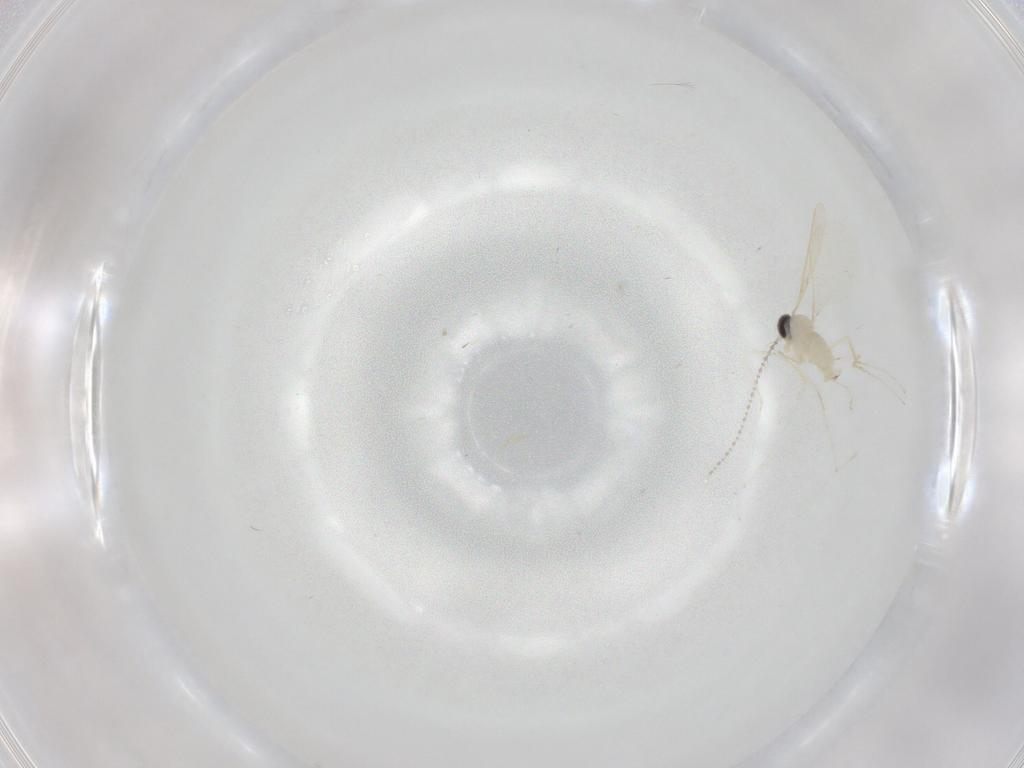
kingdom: Animalia
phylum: Arthropoda
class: Insecta
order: Diptera
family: Cecidomyiidae
